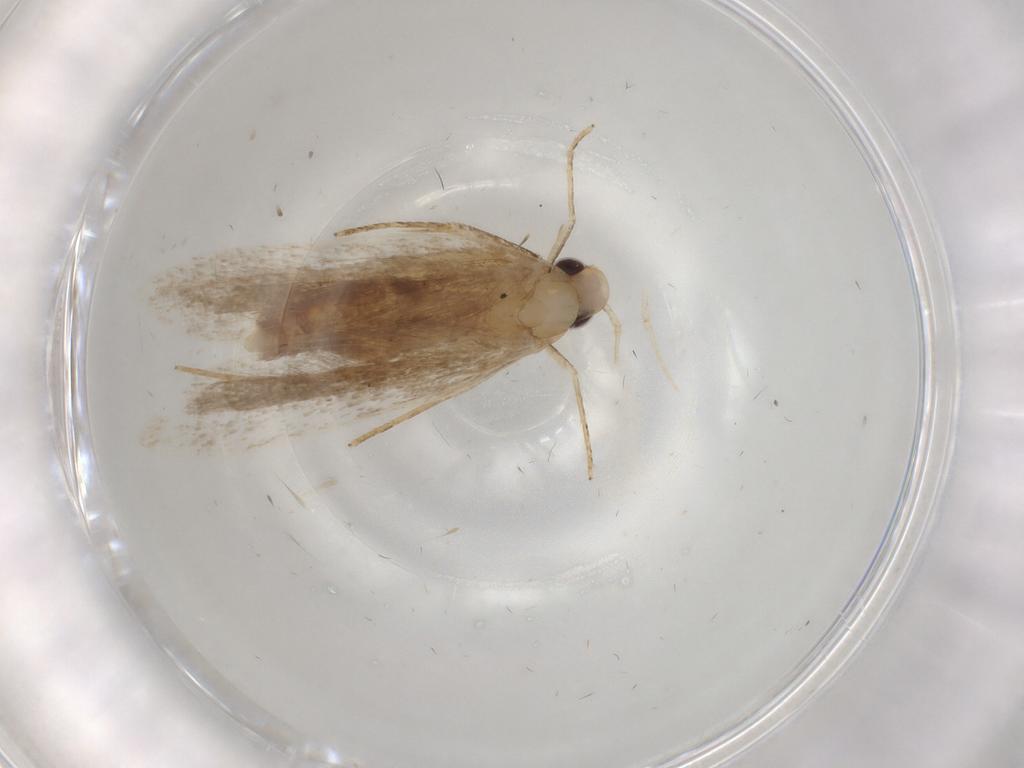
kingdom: Animalia
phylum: Arthropoda
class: Insecta
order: Lepidoptera
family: Gelechiidae
